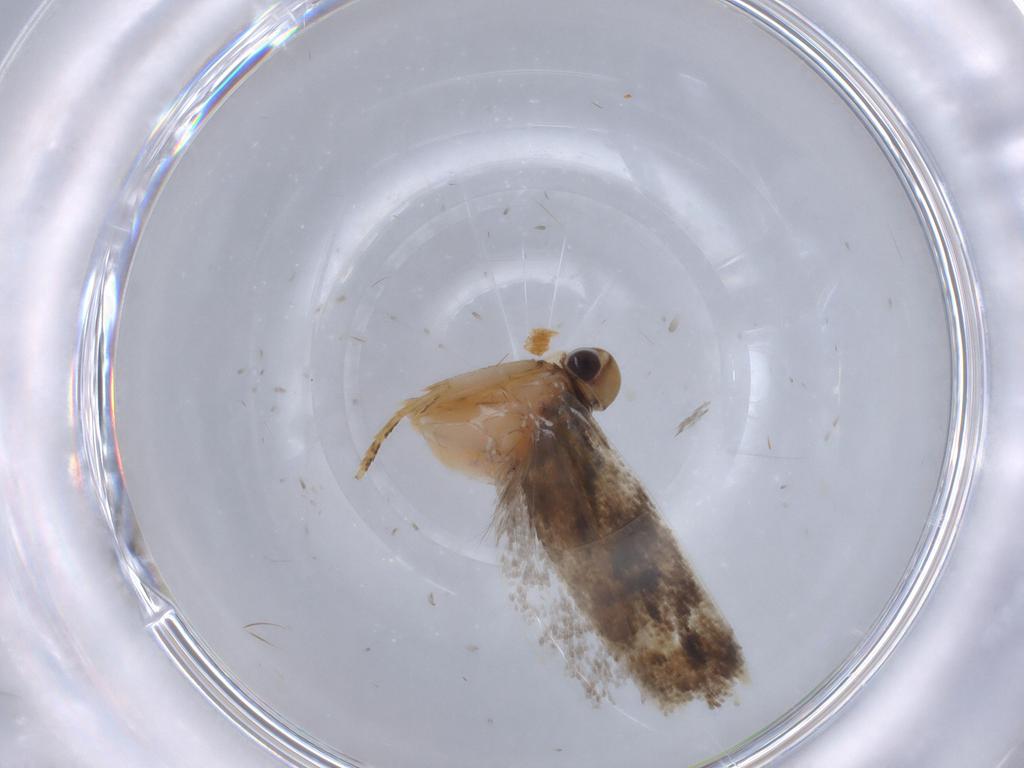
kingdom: Animalia
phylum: Arthropoda
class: Insecta
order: Lepidoptera
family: Gelechiidae
